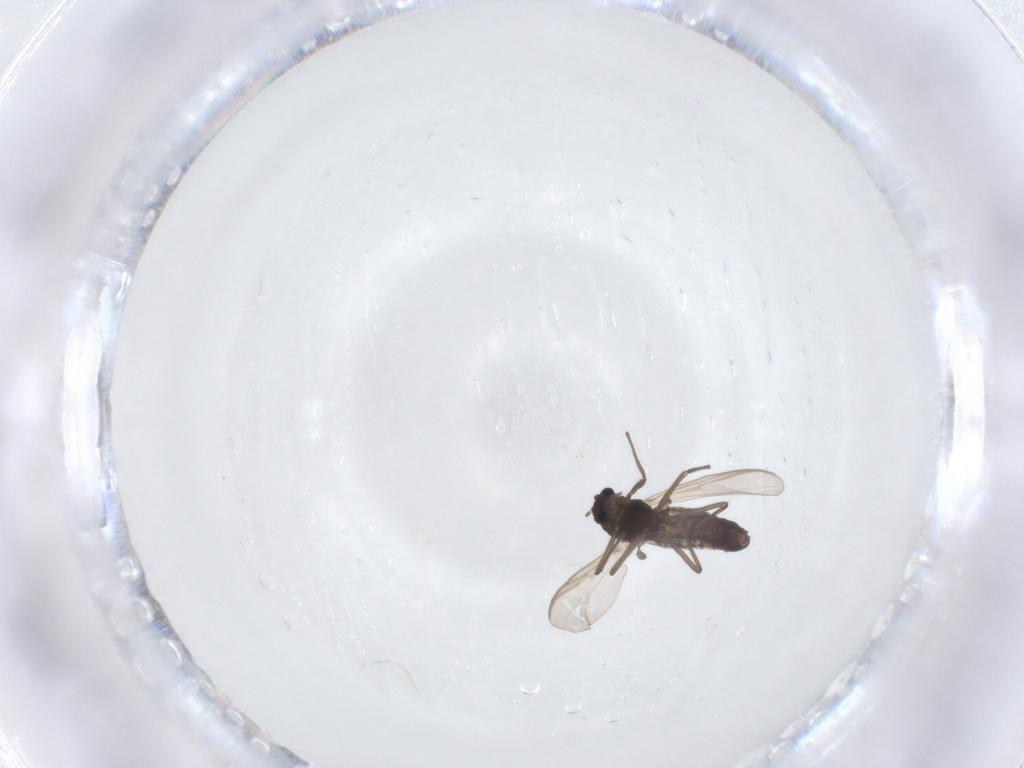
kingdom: Animalia
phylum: Arthropoda
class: Insecta
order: Diptera
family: Chironomidae
